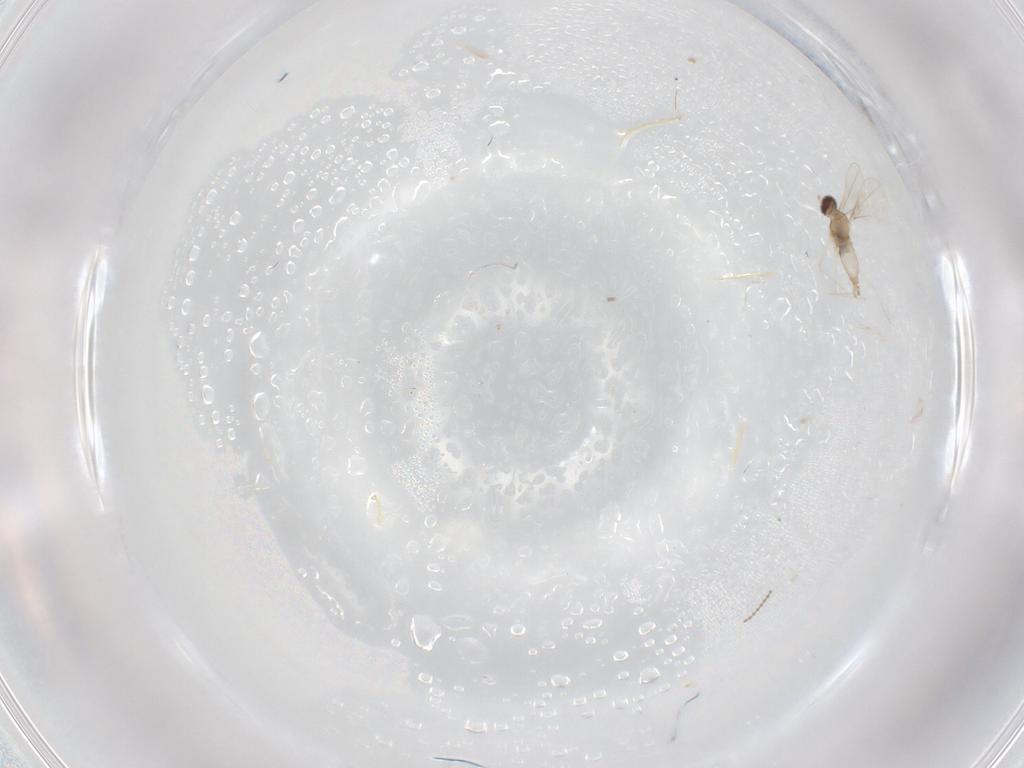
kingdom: Animalia
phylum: Arthropoda
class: Insecta
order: Diptera
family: Cecidomyiidae
